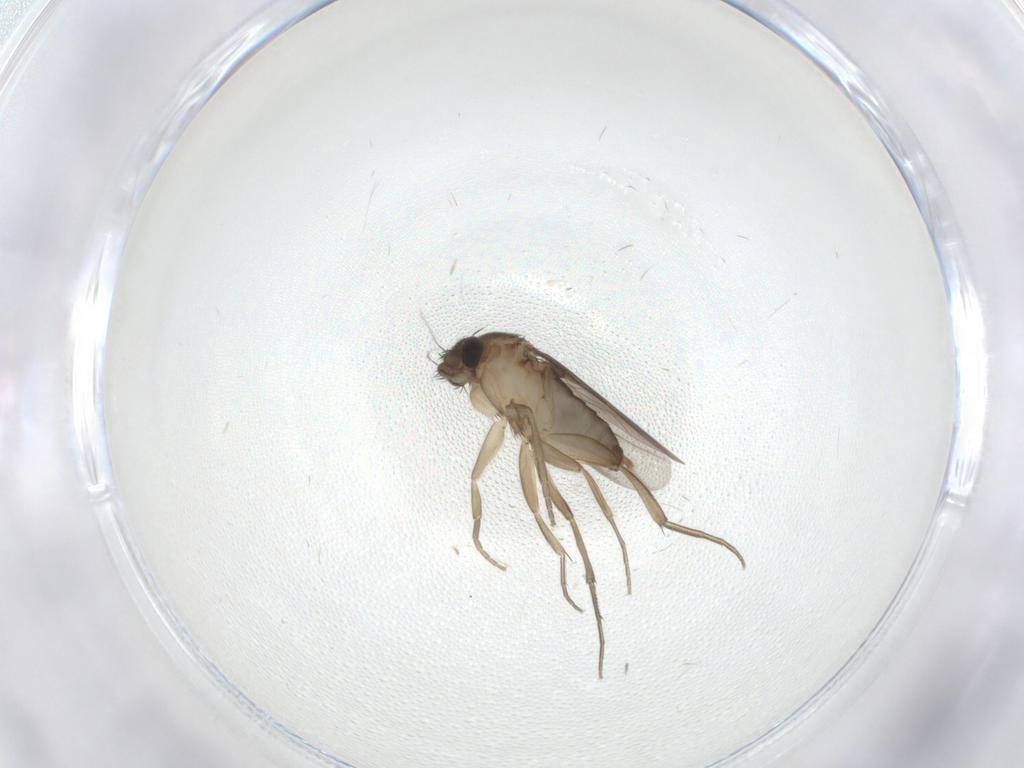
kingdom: Animalia
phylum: Arthropoda
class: Insecta
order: Diptera
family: Phoridae
